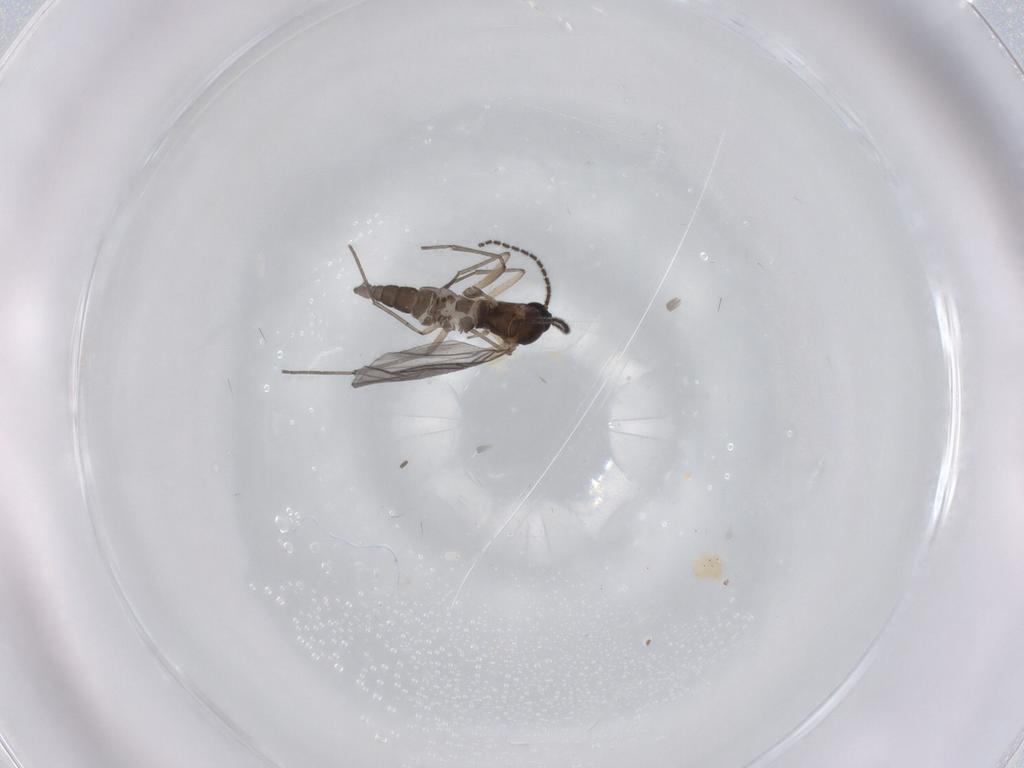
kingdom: Animalia
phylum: Arthropoda
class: Insecta
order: Diptera
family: Sciaridae
